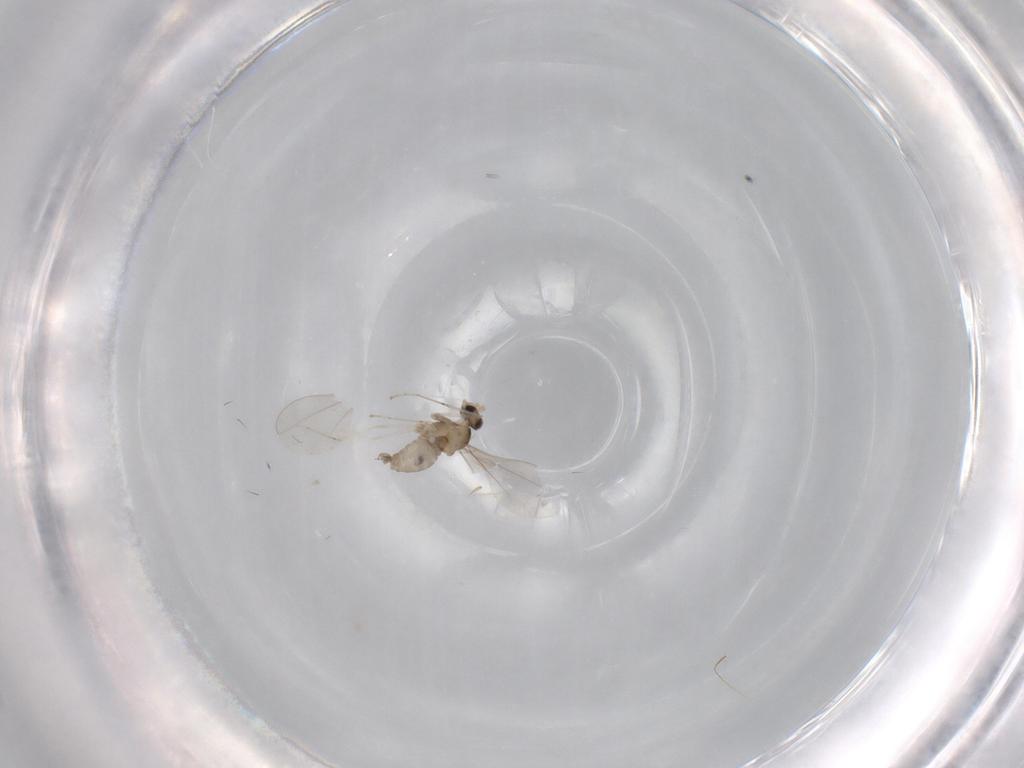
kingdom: Animalia
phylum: Arthropoda
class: Insecta
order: Diptera
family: Cecidomyiidae
